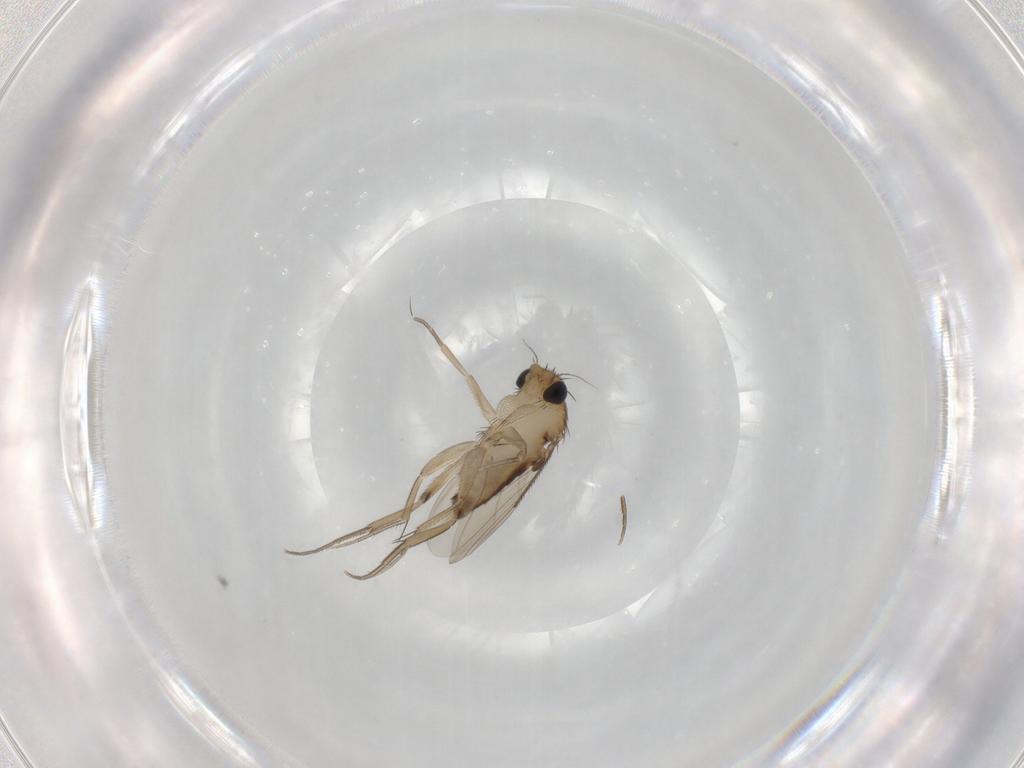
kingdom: Animalia
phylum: Arthropoda
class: Insecta
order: Diptera
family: Phoridae
